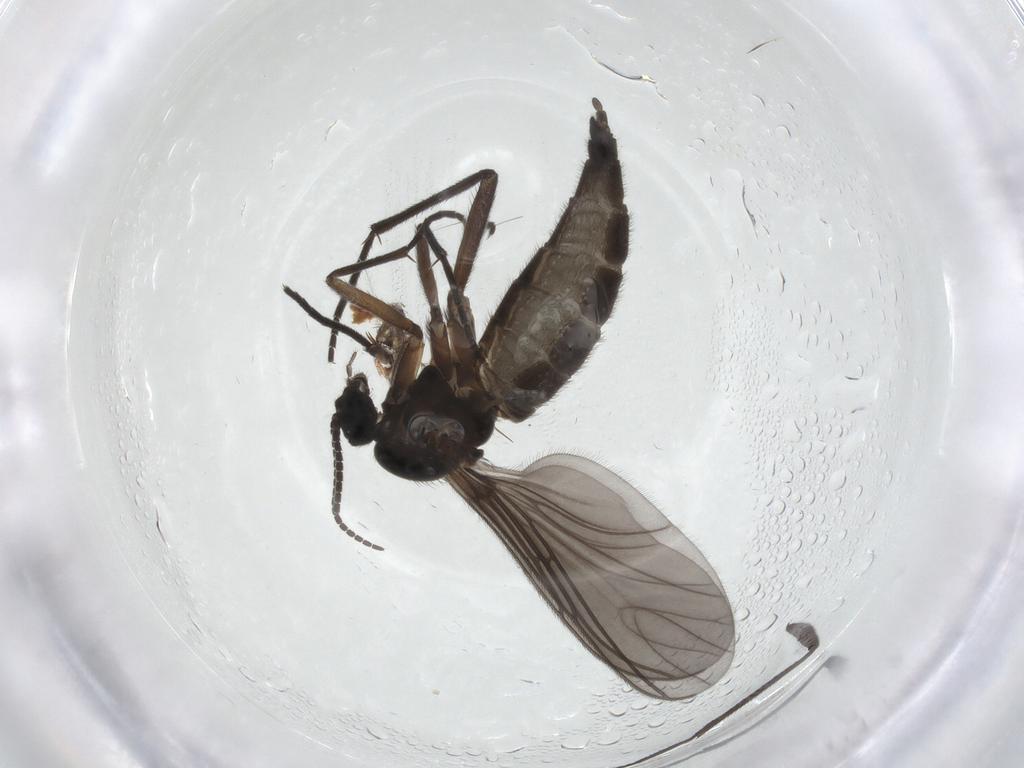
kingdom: Animalia
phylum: Arthropoda
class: Insecta
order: Diptera
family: Sciaridae
